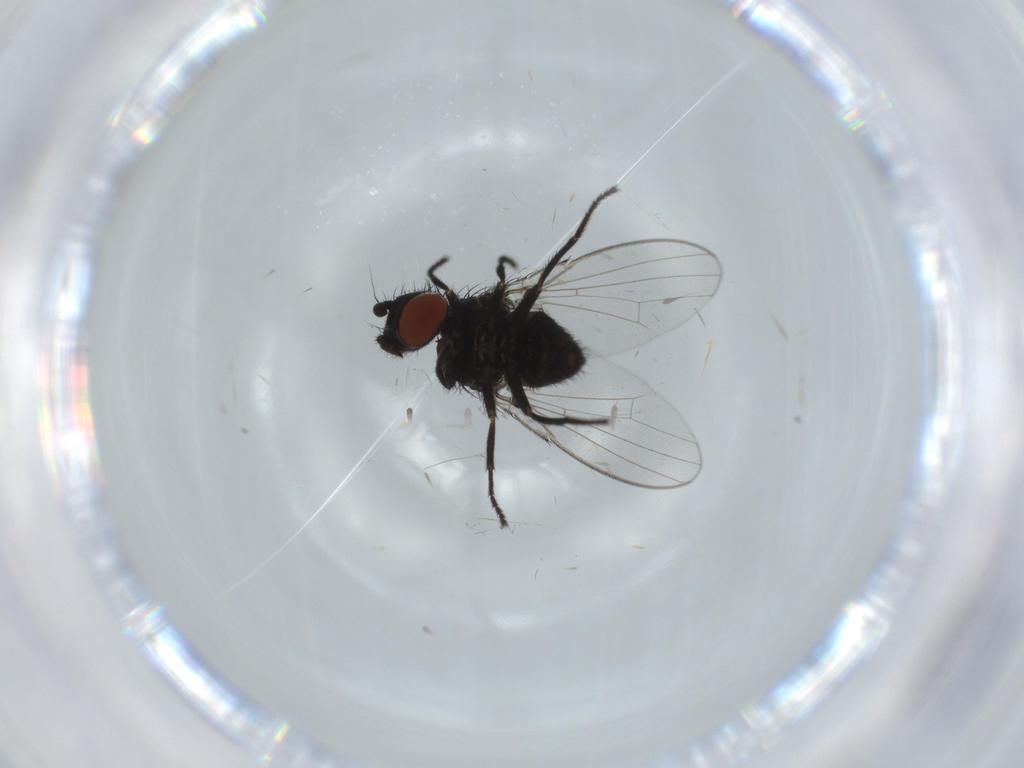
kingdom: Animalia
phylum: Arthropoda
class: Insecta
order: Diptera
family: Milichiidae
